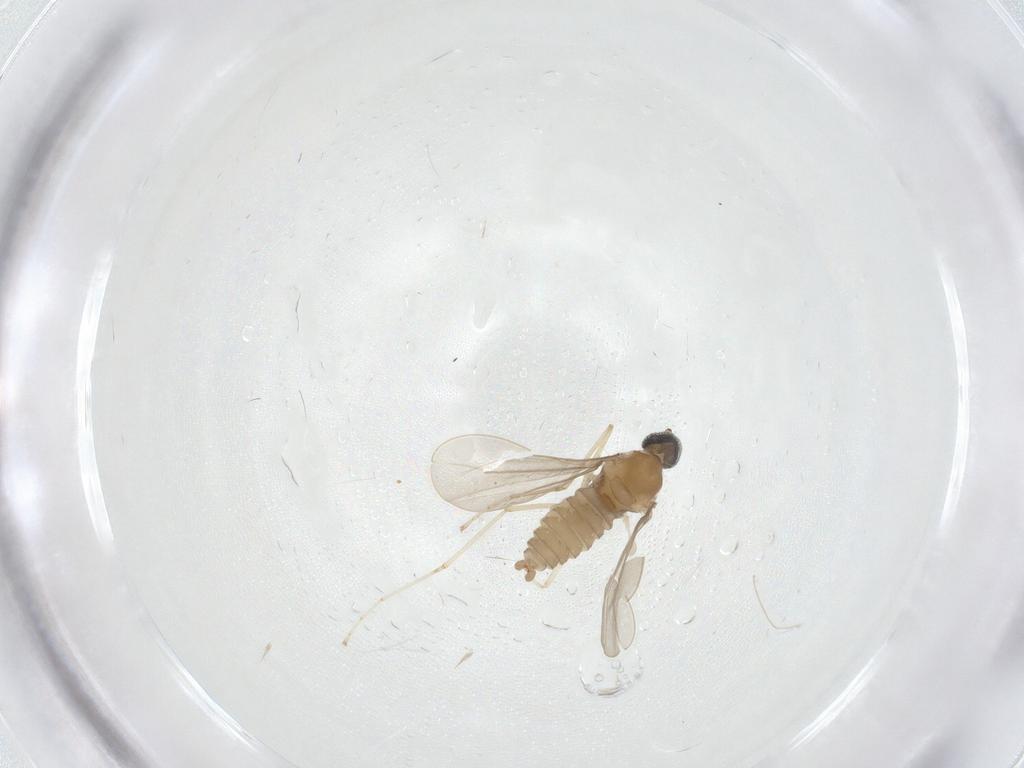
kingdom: Animalia
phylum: Arthropoda
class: Insecta
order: Diptera
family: Cecidomyiidae
